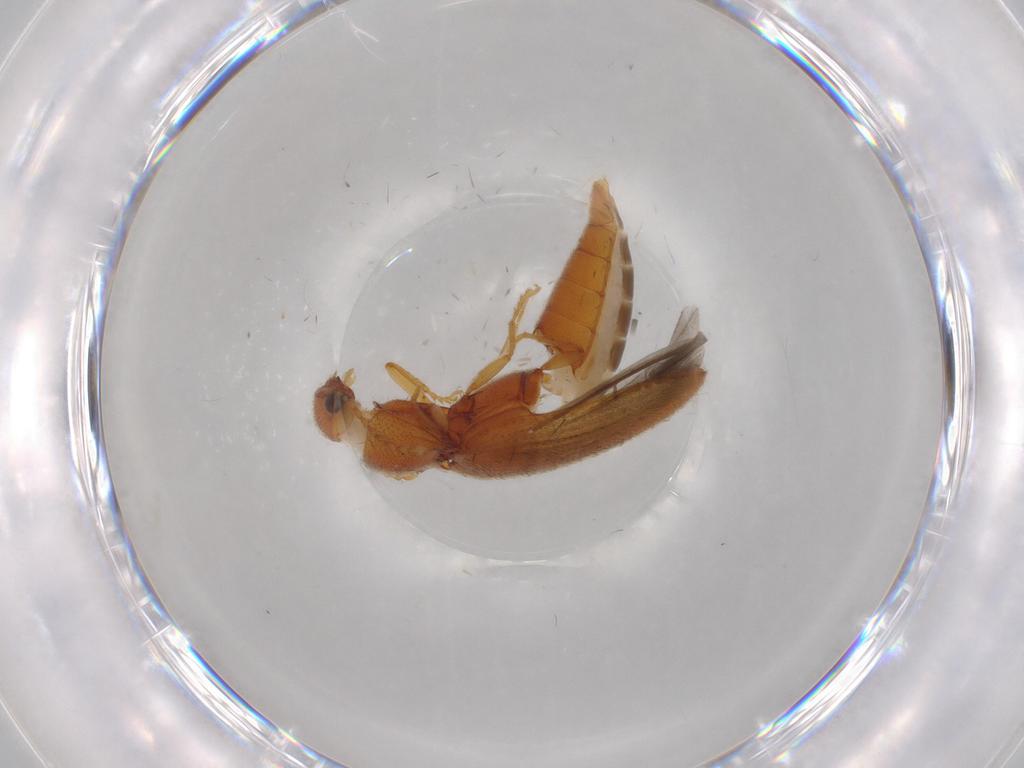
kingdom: Animalia
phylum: Arthropoda
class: Insecta
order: Coleoptera
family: Elateridae
